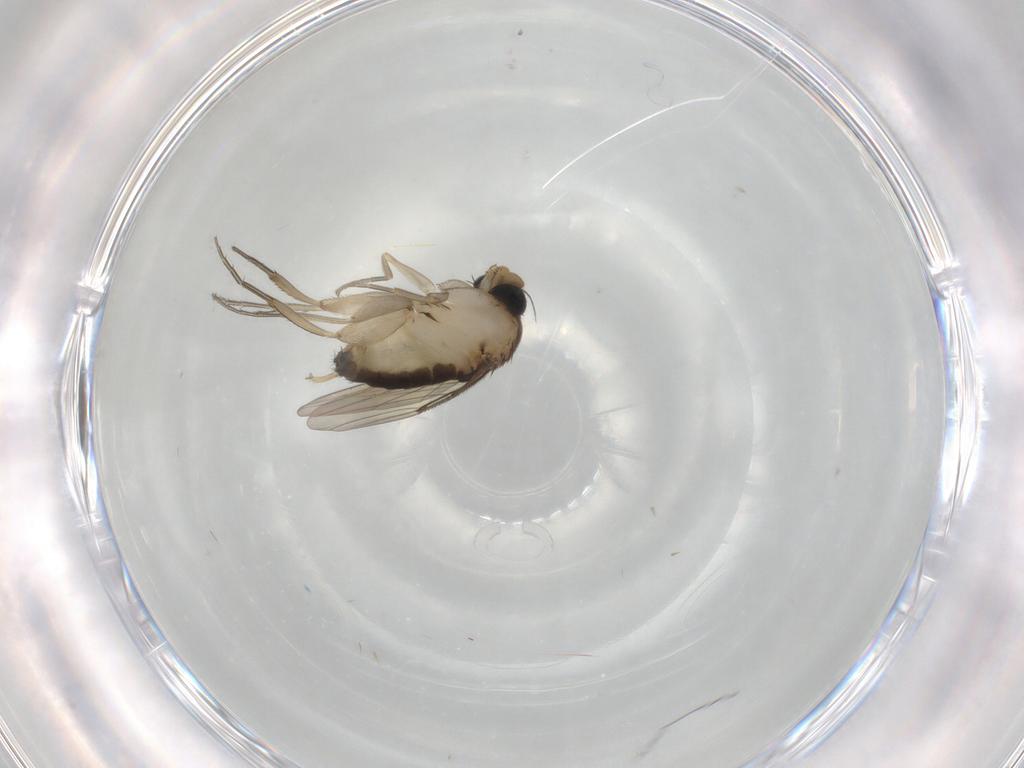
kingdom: Animalia
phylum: Arthropoda
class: Insecta
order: Diptera
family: Phoridae
